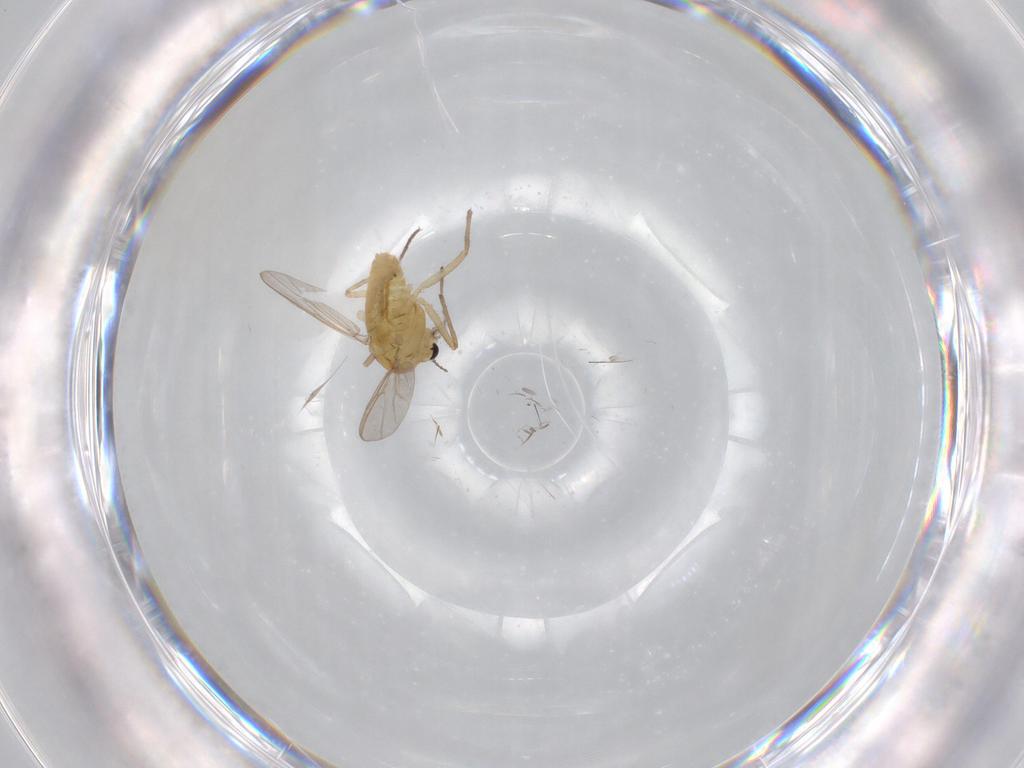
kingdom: Animalia
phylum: Arthropoda
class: Insecta
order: Diptera
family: Chironomidae
